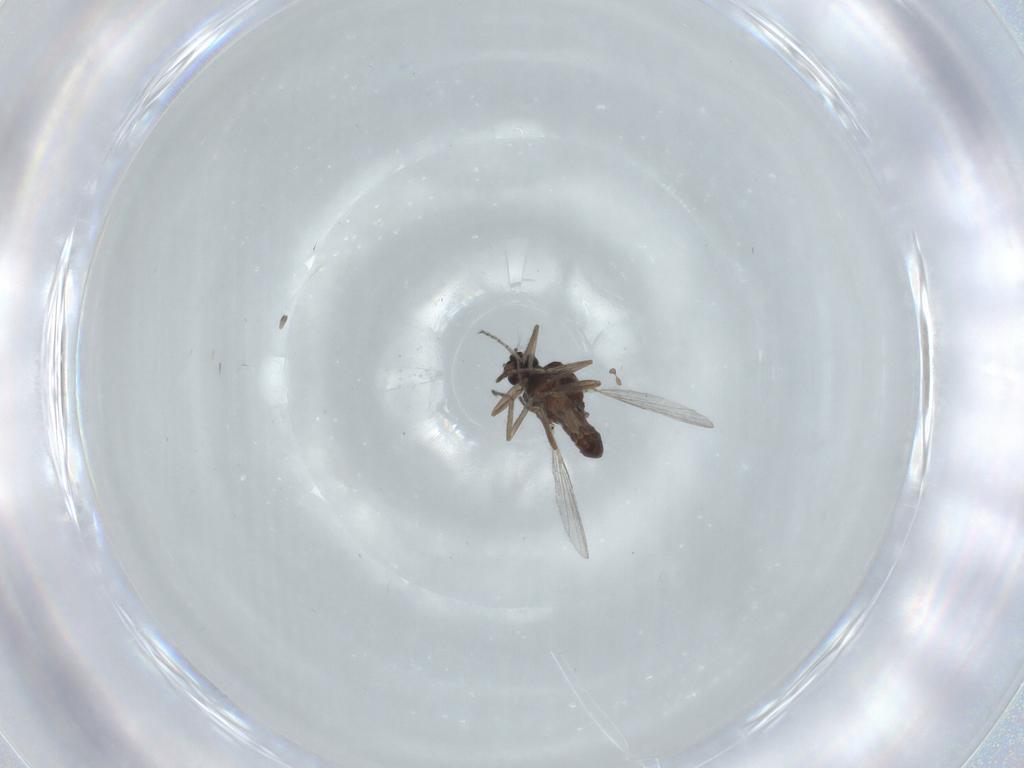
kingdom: Animalia
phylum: Arthropoda
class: Insecta
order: Diptera
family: Ceratopogonidae
